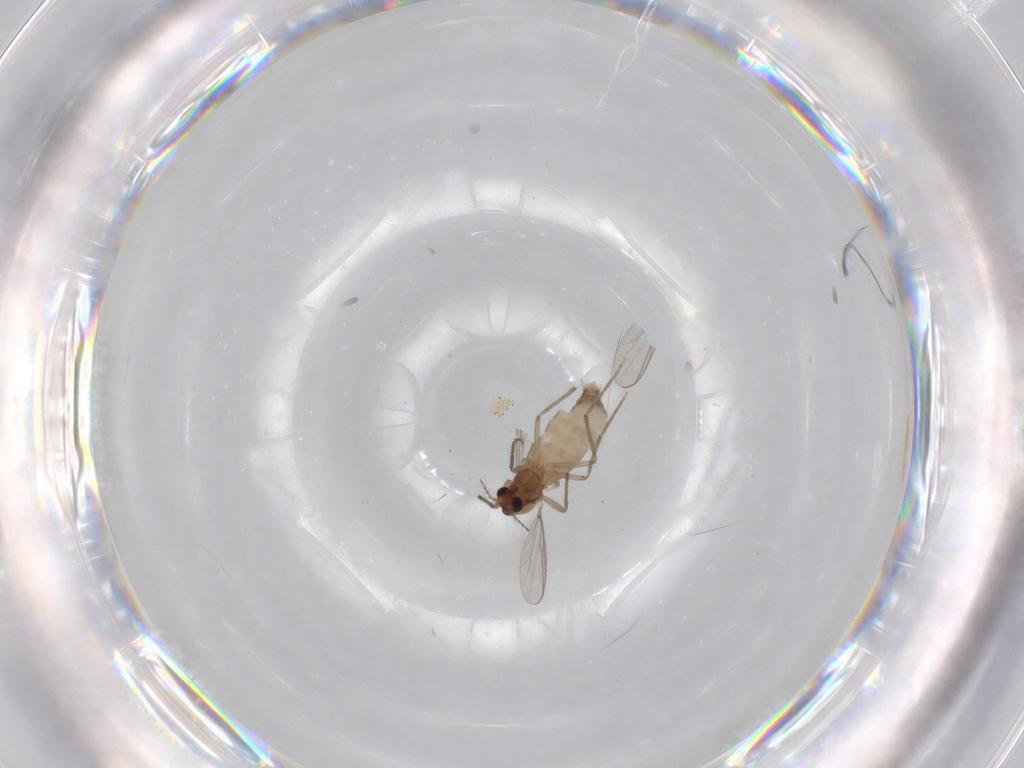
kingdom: Animalia
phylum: Arthropoda
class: Insecta
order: Diptera
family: Chironomidae
